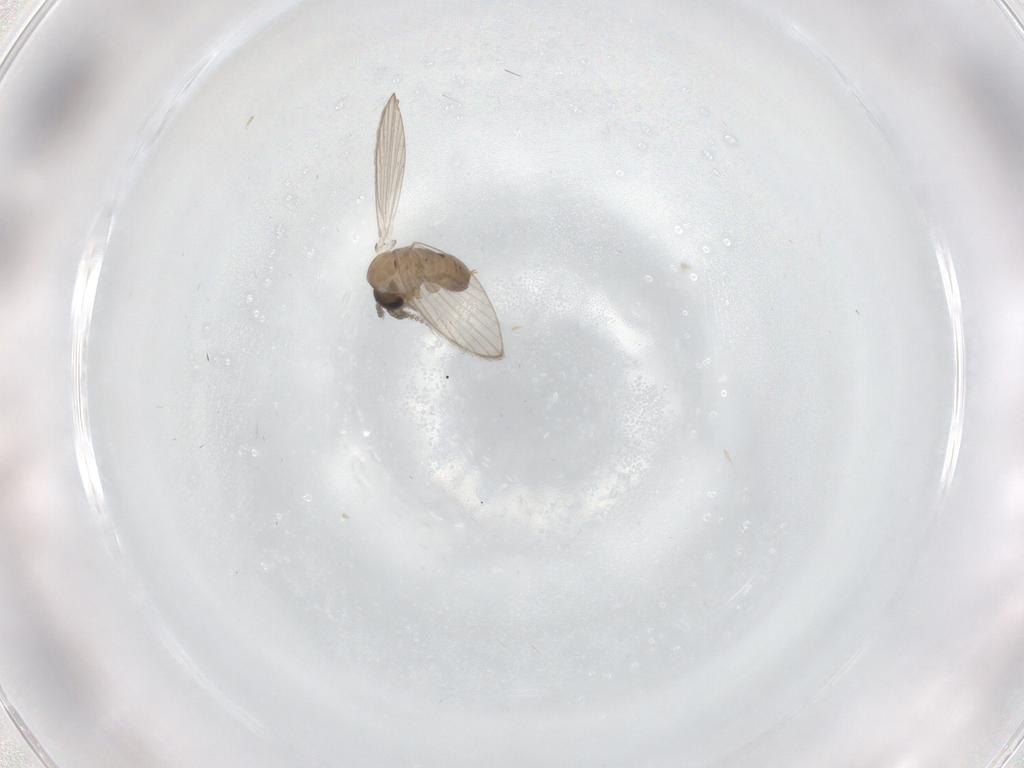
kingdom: Animalia
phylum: Arthropoda
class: Insecta
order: Diptera
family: Psychodidae
